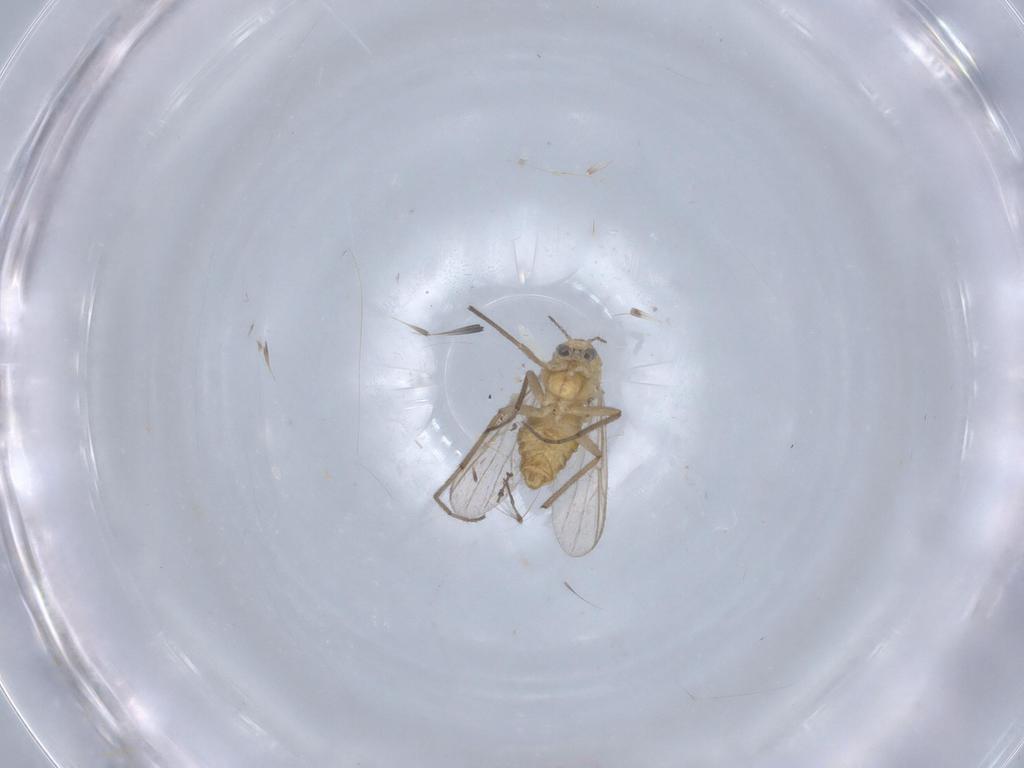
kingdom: Animalia
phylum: Arthropoda
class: Insecta
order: Diptera
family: Chironomidae
